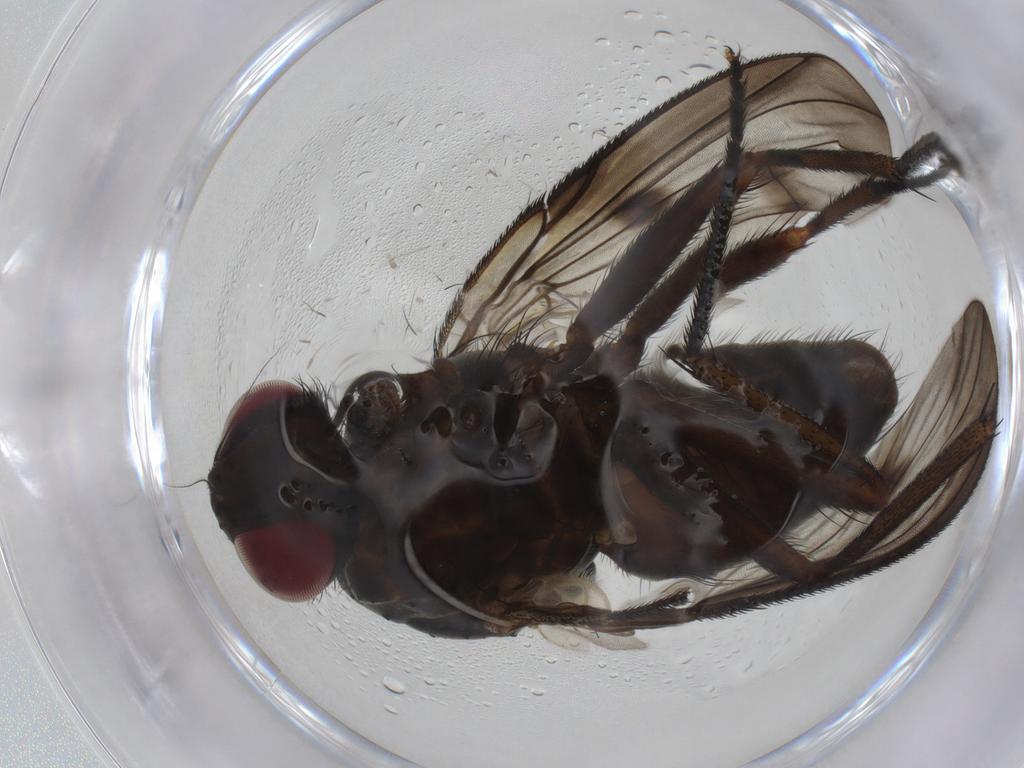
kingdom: Animalia
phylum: Arthropoda
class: Insecta
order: Diptera
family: Muscidae
